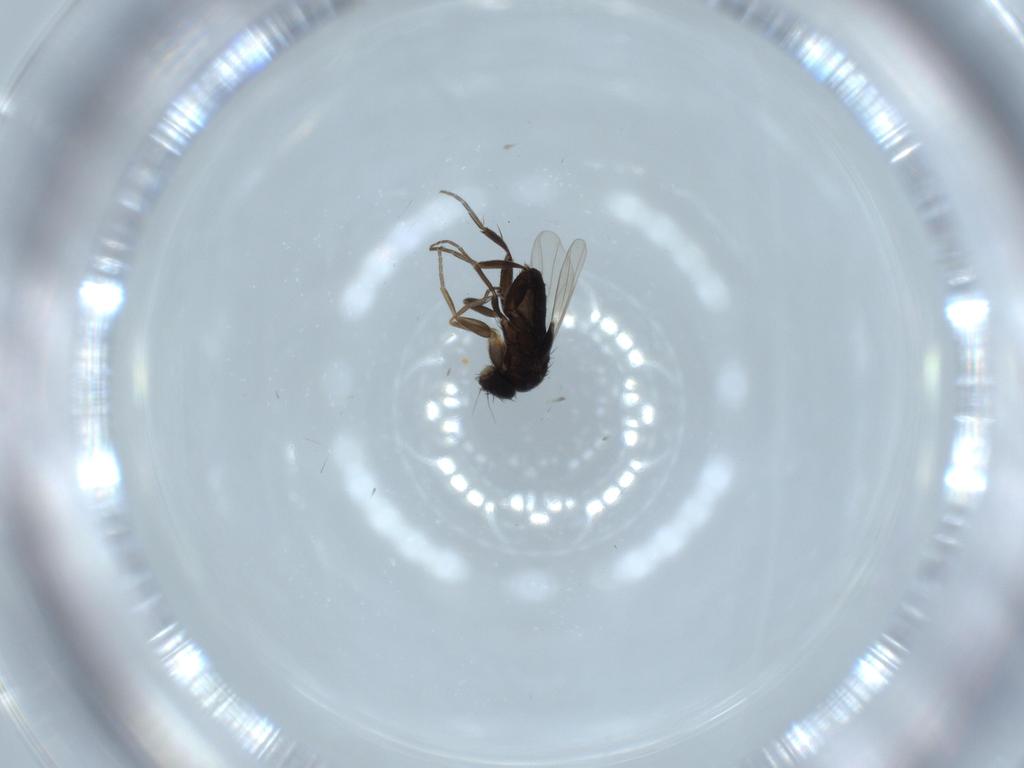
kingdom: Animalia
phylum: Arthropoda
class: Insecta
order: Diptera
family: Phoridae
